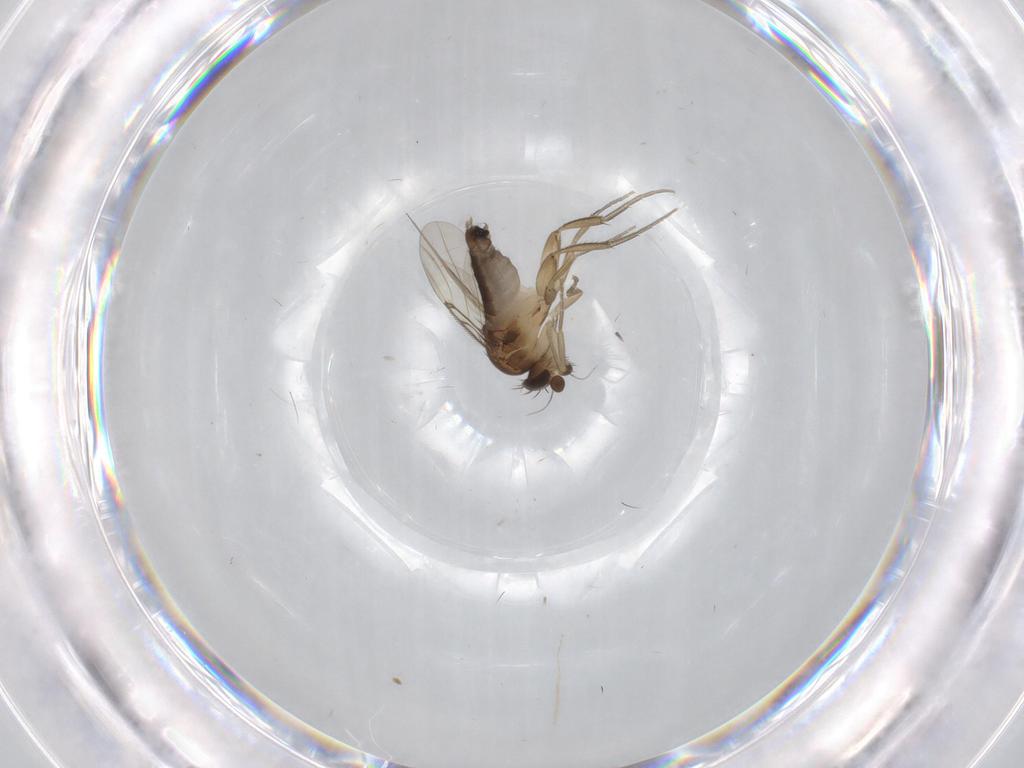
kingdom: Animalia
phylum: Arthropoda
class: Insecta
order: Diptera
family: Phoridae
